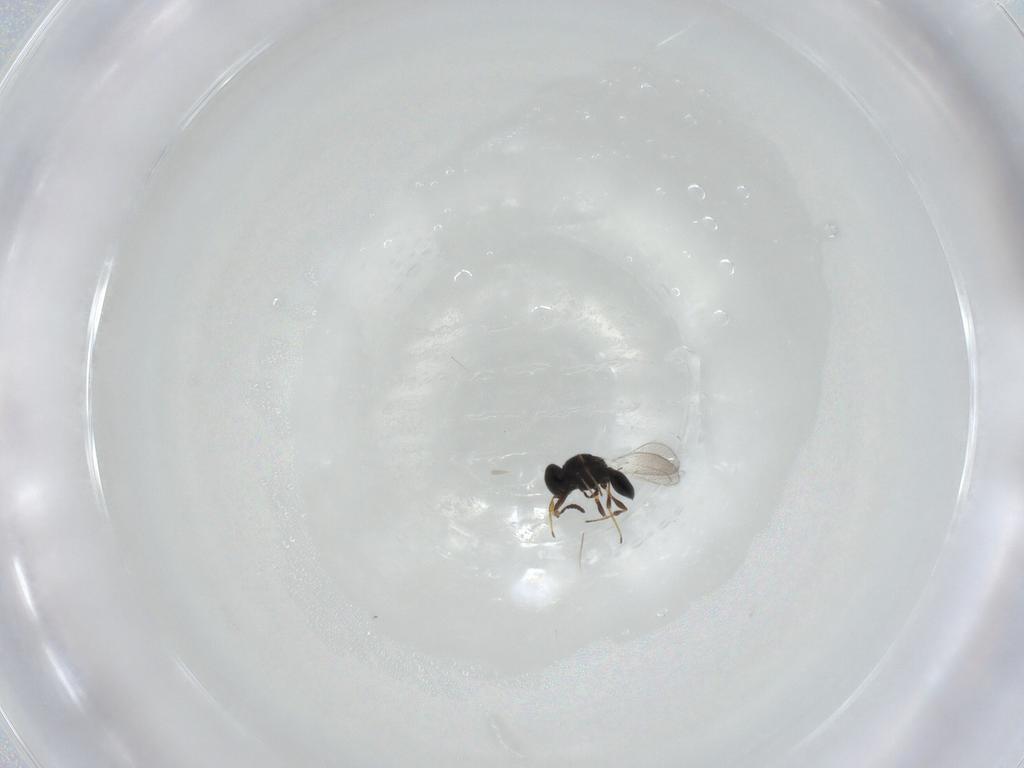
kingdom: Animalia
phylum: Arthropoda
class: Insecta
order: Hymenoptera
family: Platygastridae
